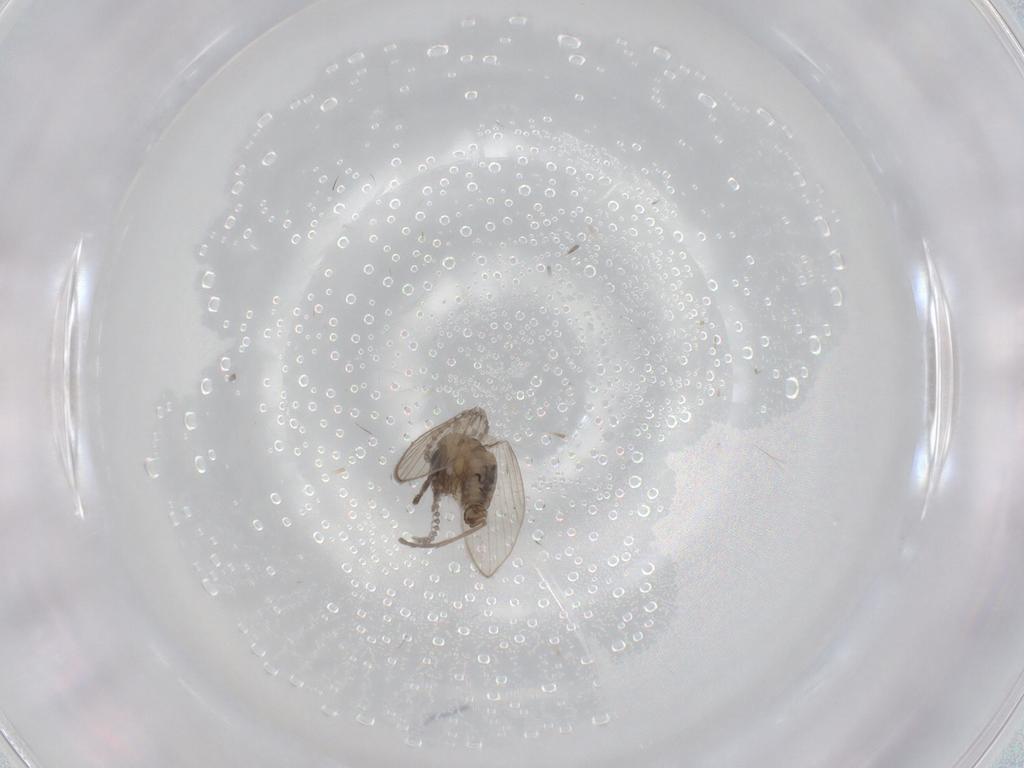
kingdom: Animalia
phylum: Arthropoda
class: Insecta
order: Diptera
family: Psychodidae
